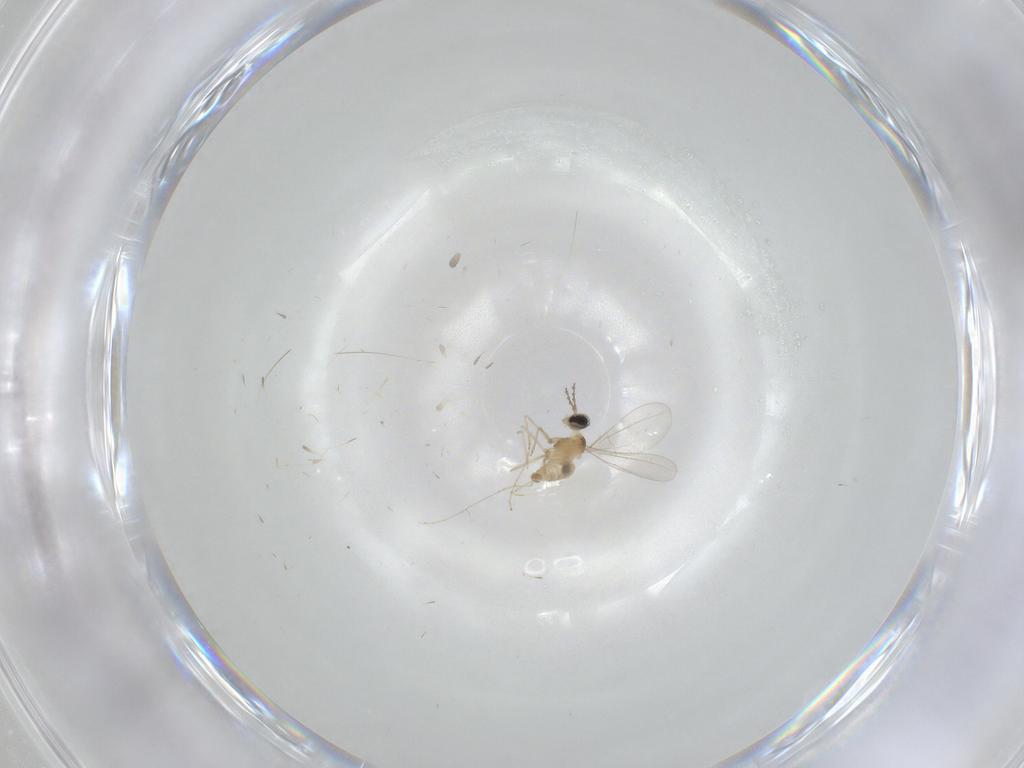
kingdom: Animalia
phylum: Arthropoda
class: Insecta
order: Diptera
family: Cecidomyiidae
